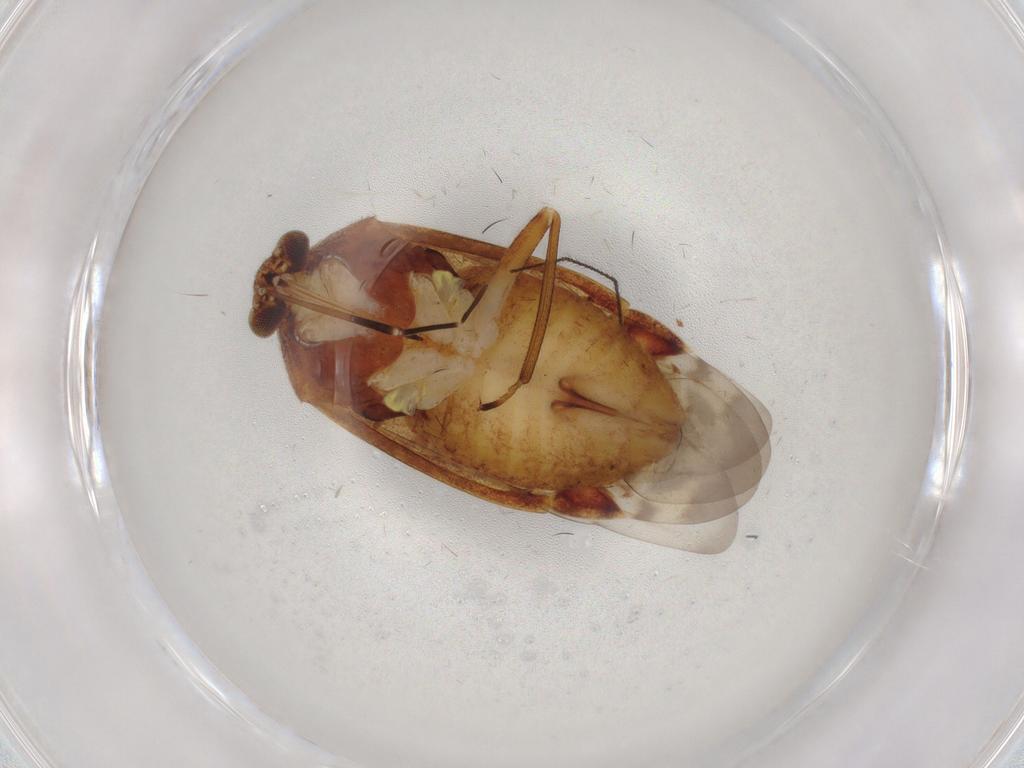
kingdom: Animalia
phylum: Arthropoda
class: Insecta
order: Hemiptera
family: Miridae
